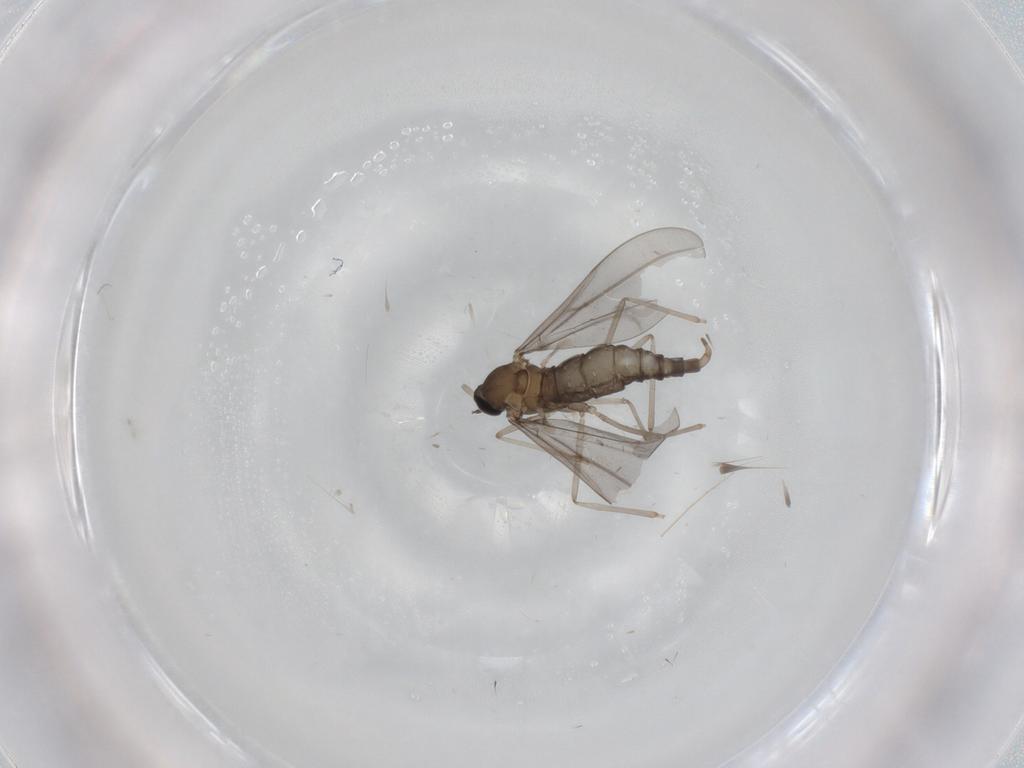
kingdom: Animalia
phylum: Arthropoda
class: Insecta
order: Diptera
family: Cecidomyiidae
